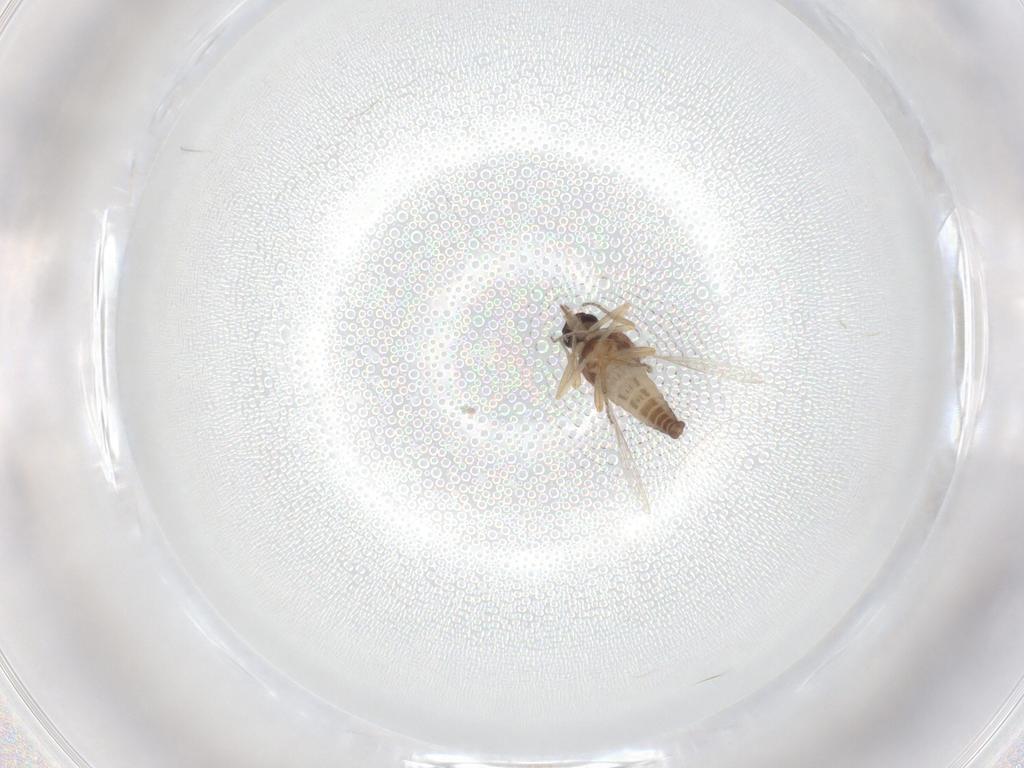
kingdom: Animalia
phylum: Arthropoda
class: Insecta
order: Diptera
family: Ceratopogonidae
